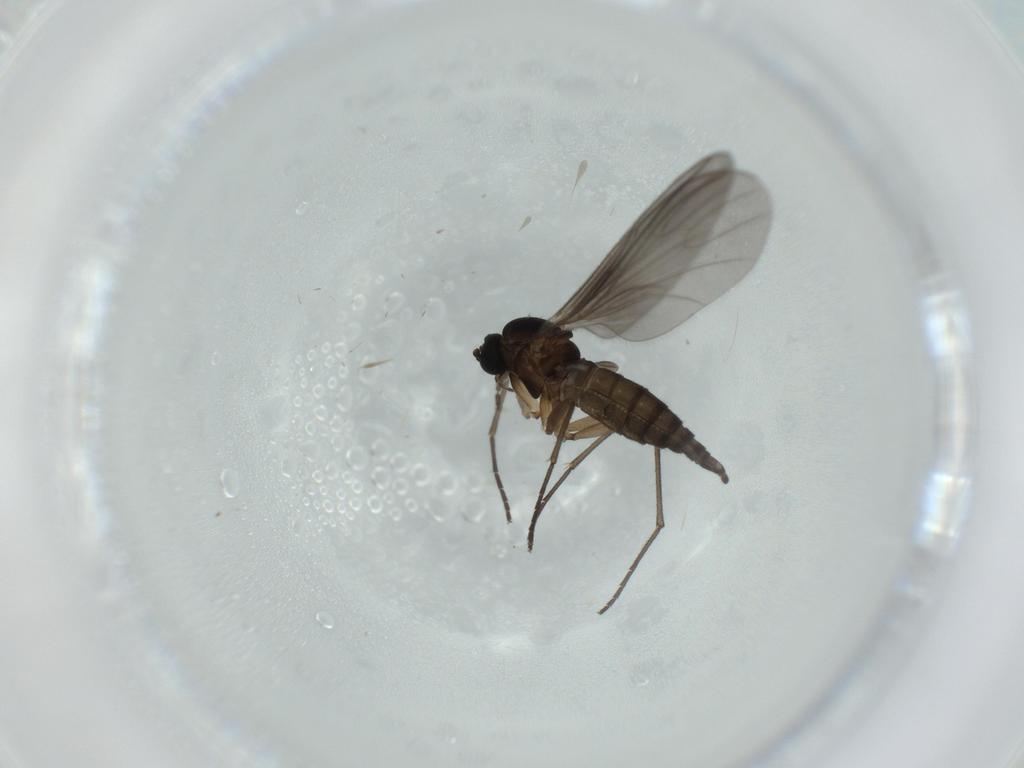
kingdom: Animalia
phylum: Arthropoda
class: Insecta
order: Diptera
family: Sciaridae
